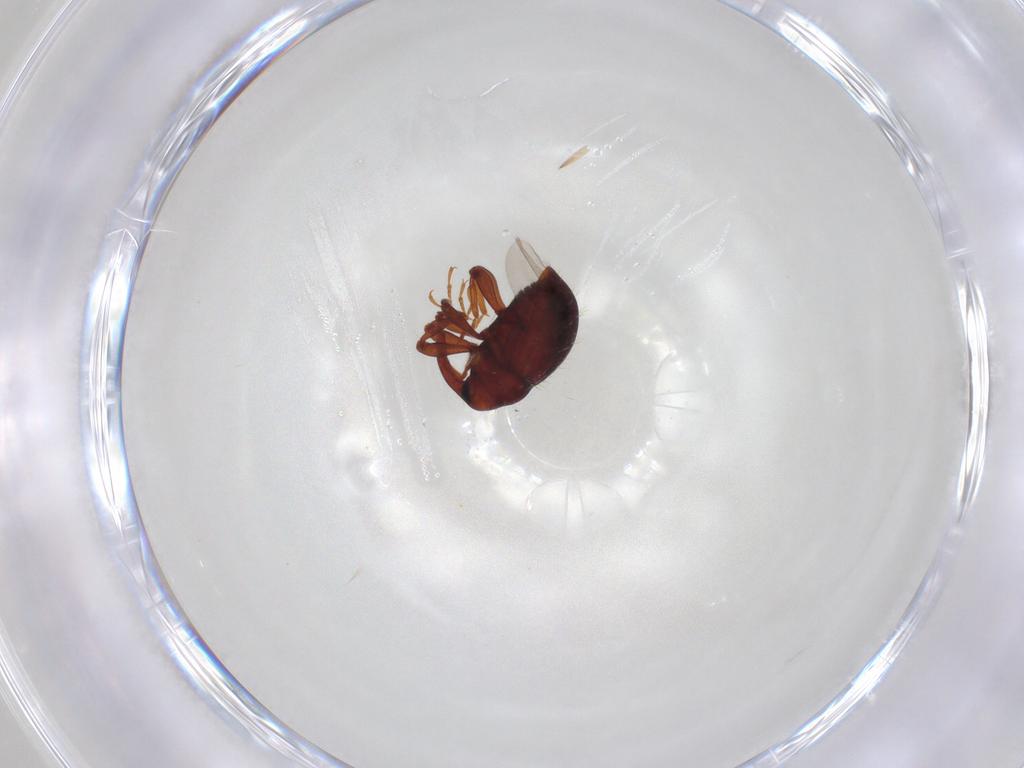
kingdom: Animalia
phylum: Arthropoda
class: Insecta
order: Coleoptera
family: Curculionidae
